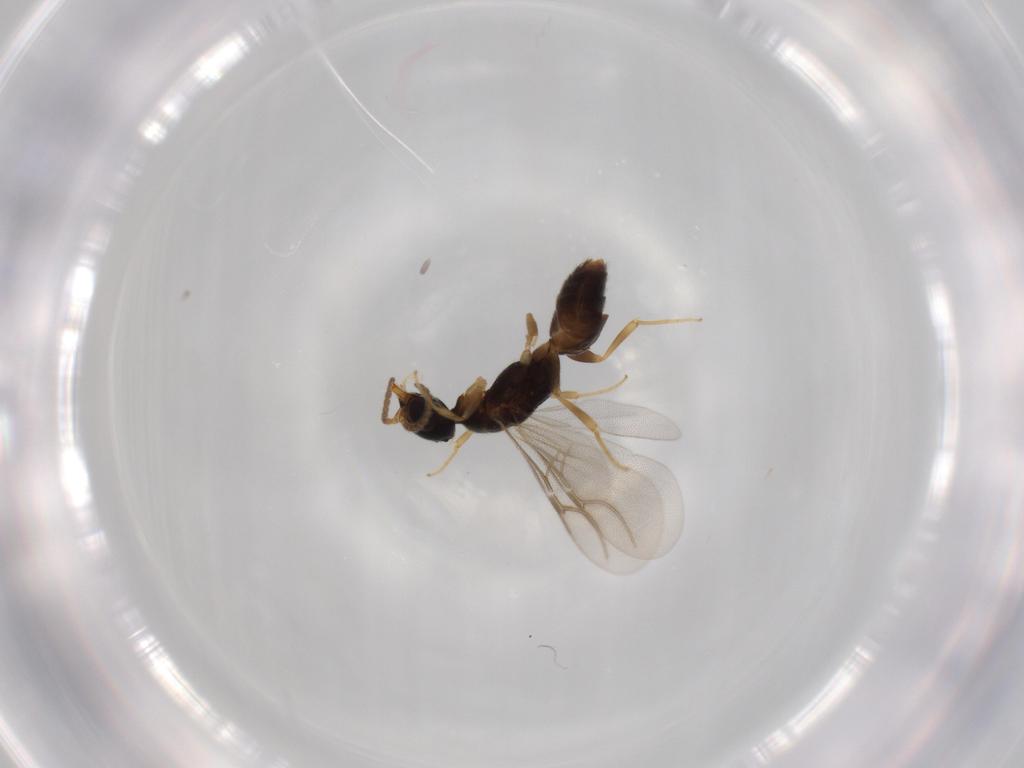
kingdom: Animalia
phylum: Arthropoda
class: Insecta
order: Hymenoptera
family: Bethylidae
